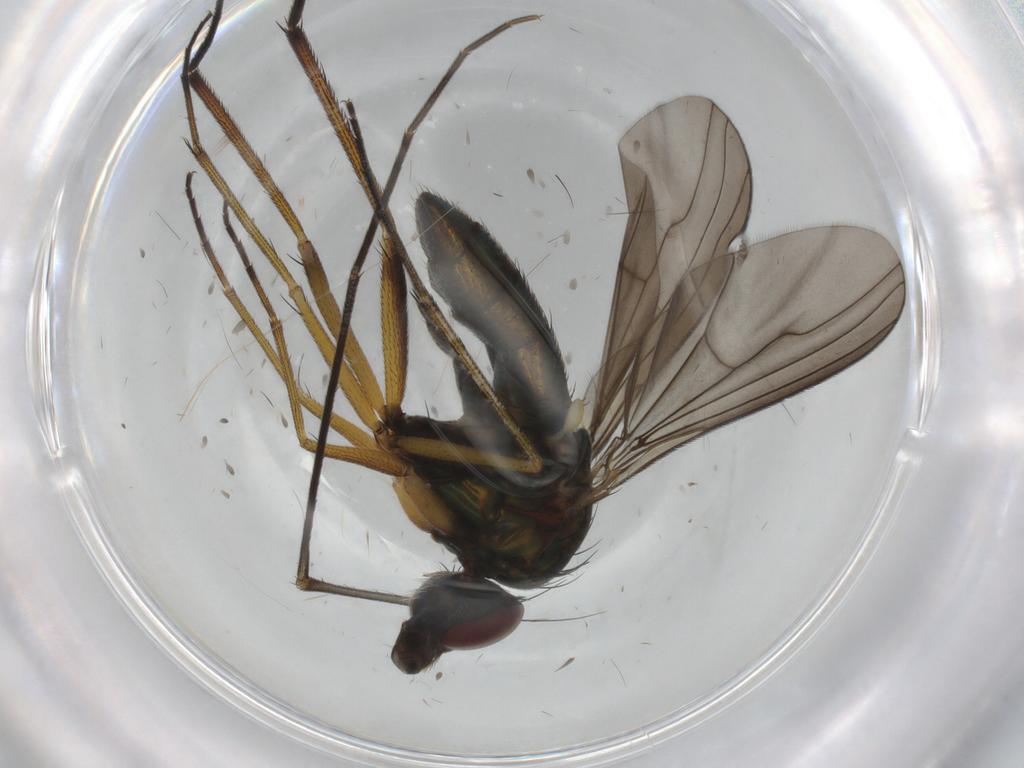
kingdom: Animalia
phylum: Arthropoda
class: Insecta
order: Diptera
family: Dolichopodidae
